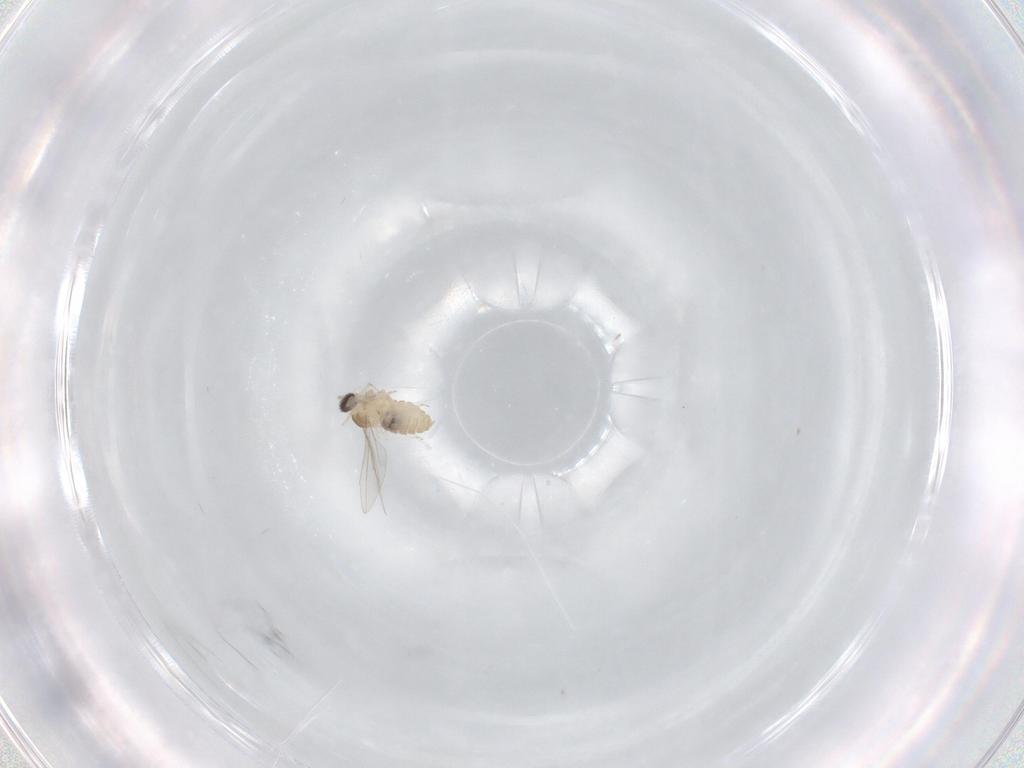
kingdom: Animalia
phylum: Arthropoda
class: Insecta
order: Diptera
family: Cecidomyiidae
